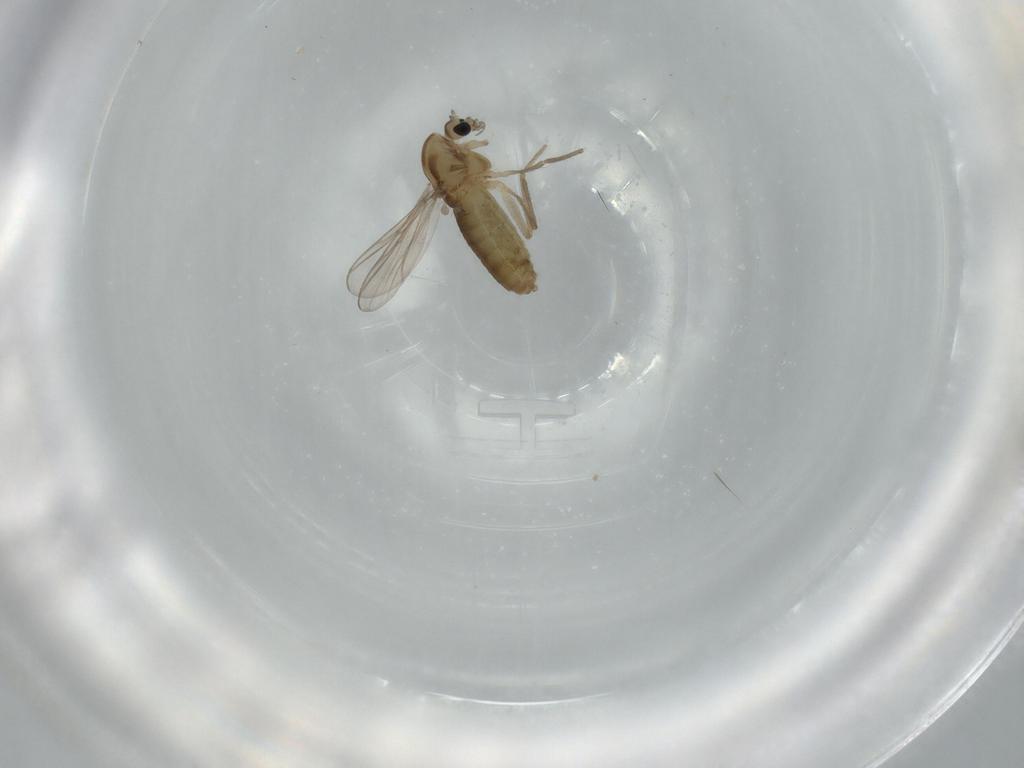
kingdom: Animalia
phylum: Arthropoda
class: Insecta
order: Diptera
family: Chironomidae
